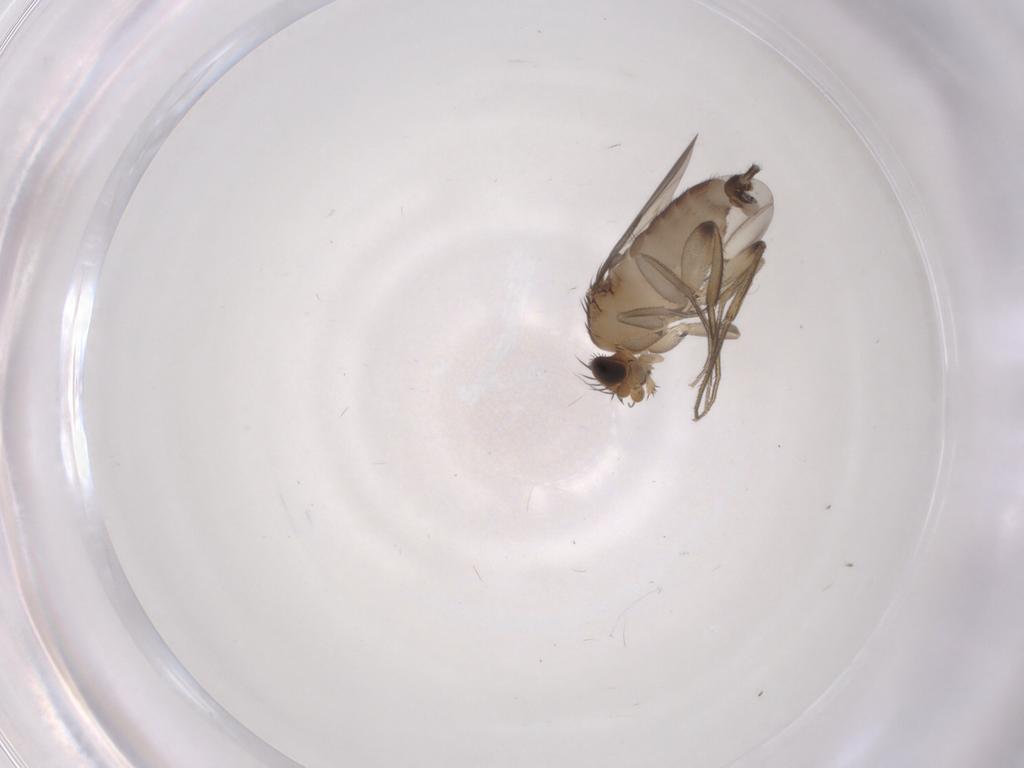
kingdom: Animalia
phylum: Arthropoda
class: Insecta
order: Diptera
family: Phoridae
